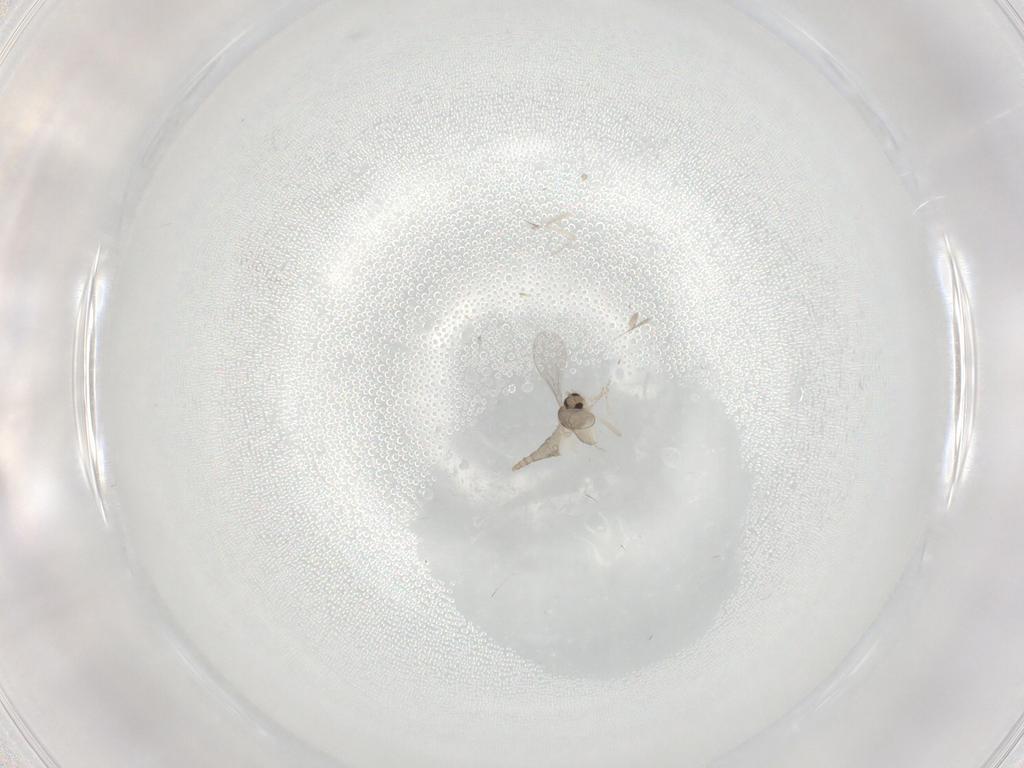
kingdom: Animalia
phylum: Arthropoda
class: Insecta
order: Diptera
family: Cecidomyiidae
